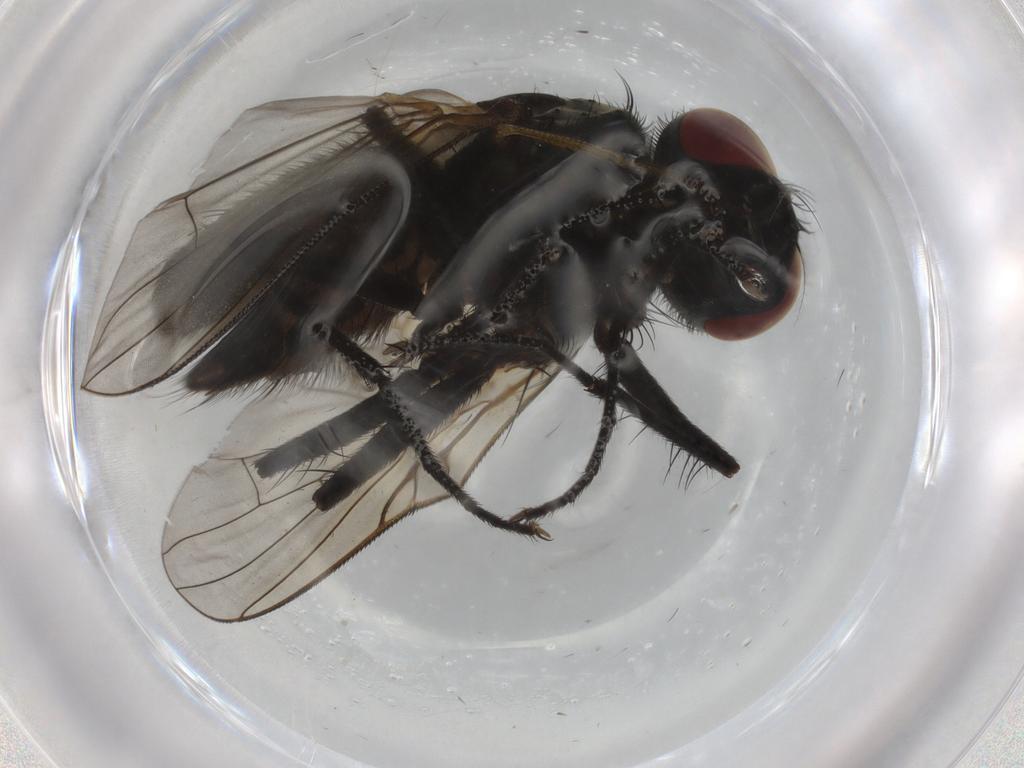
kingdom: Animalia
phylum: Arthropoda
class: Insecta
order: Diptera
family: Muscidae
